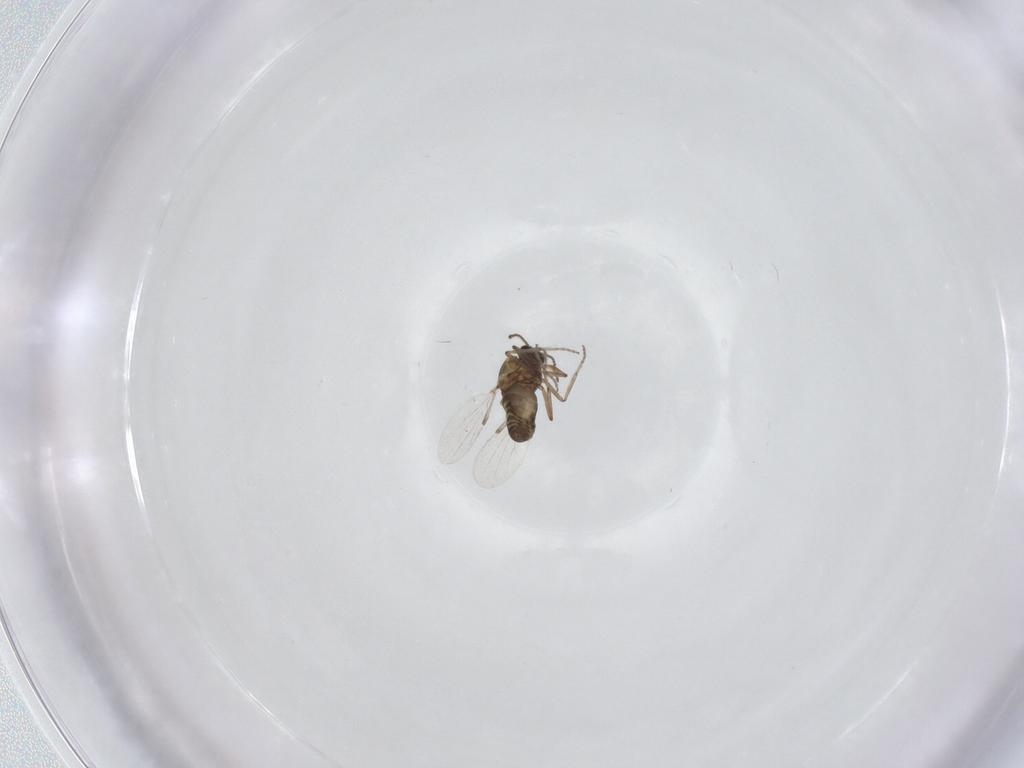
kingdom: Animalia
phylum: Arthropoda
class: Insecta
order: Diptera
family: Ceratopogonidae
